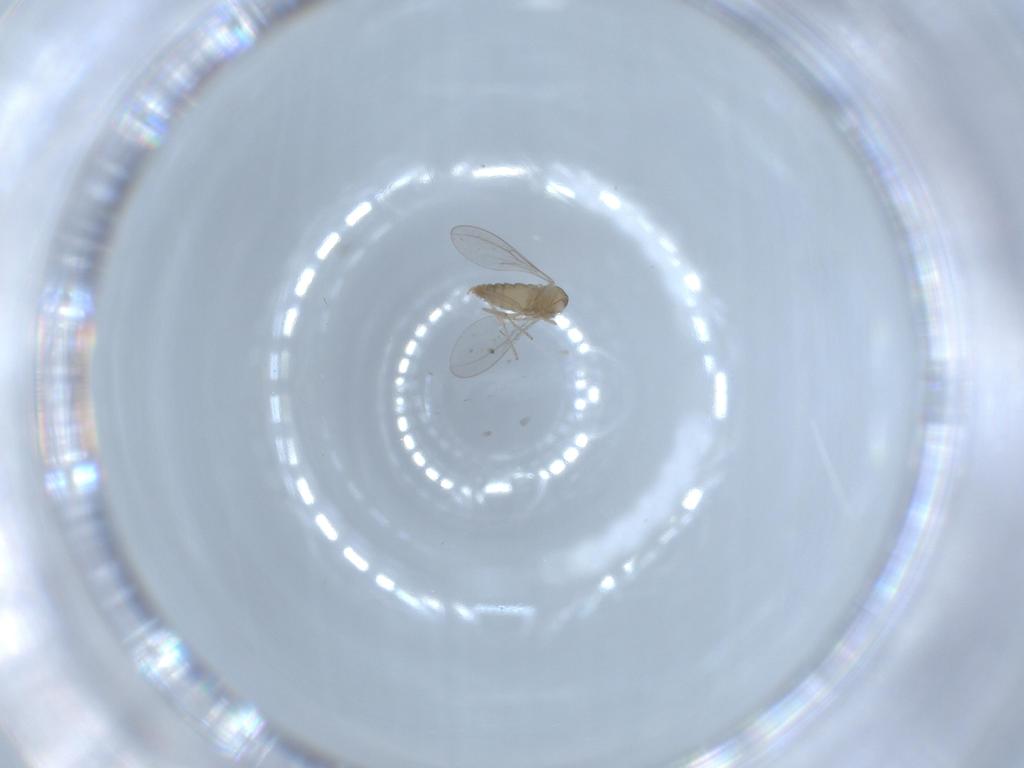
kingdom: Animalia
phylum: Arthropoda
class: Insecta
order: Diptera
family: Cecidomyiidae
